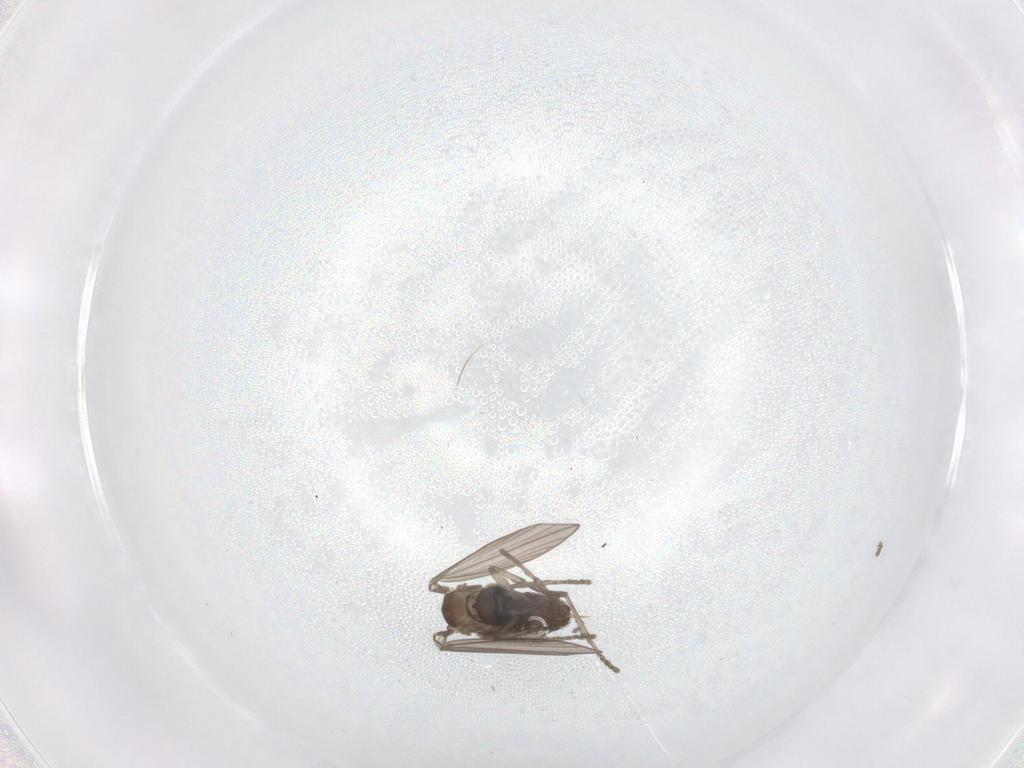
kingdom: Animalia
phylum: Arthropoda
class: Insecta
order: Diptera
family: Psychodidae
